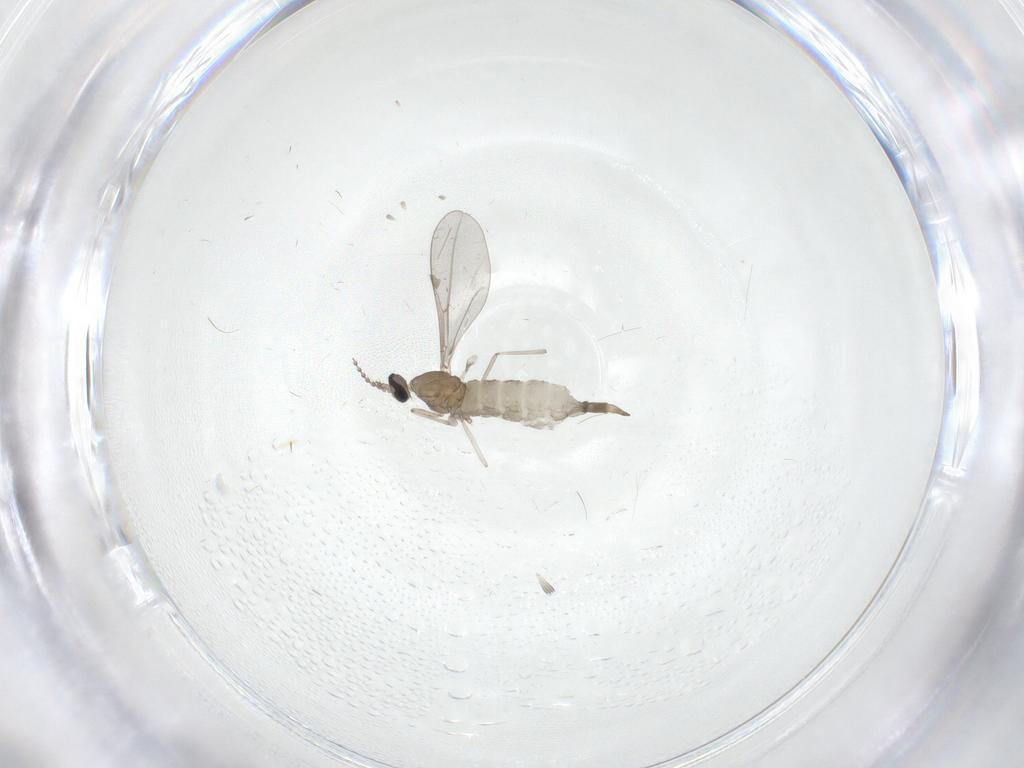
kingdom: Animalia
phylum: Arthropoda
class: Insecta
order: Diptera
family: Cecidomyiidae
